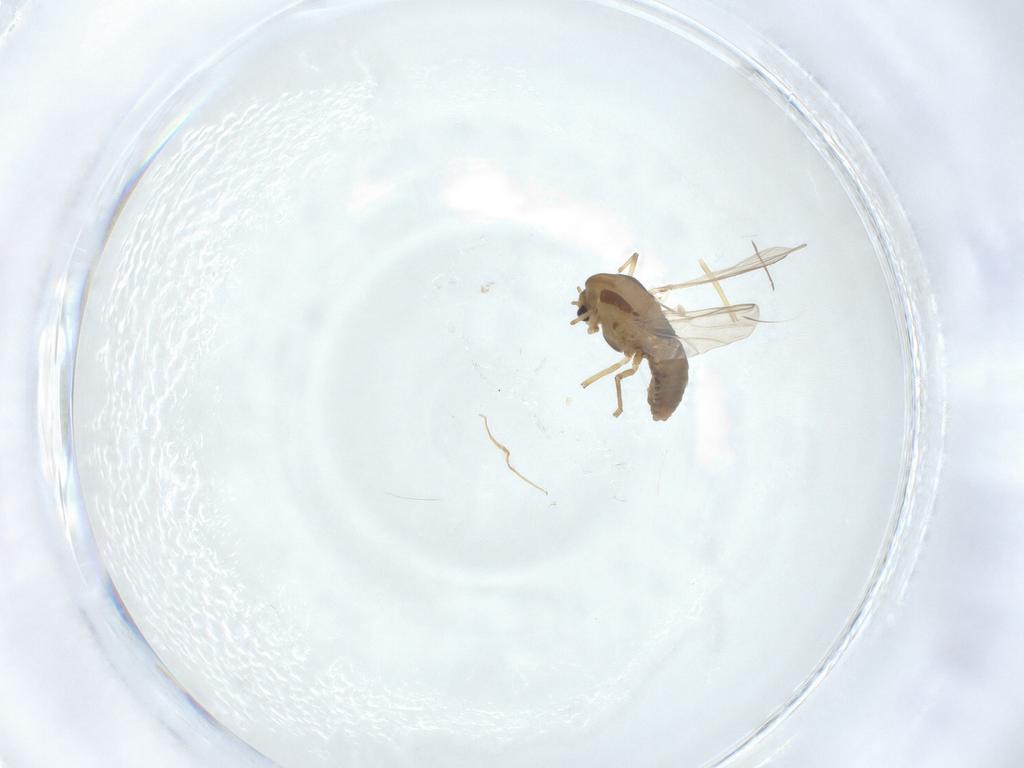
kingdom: Animalia
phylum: Arthropoda
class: Insecta
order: Diptera
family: Chironomidae
